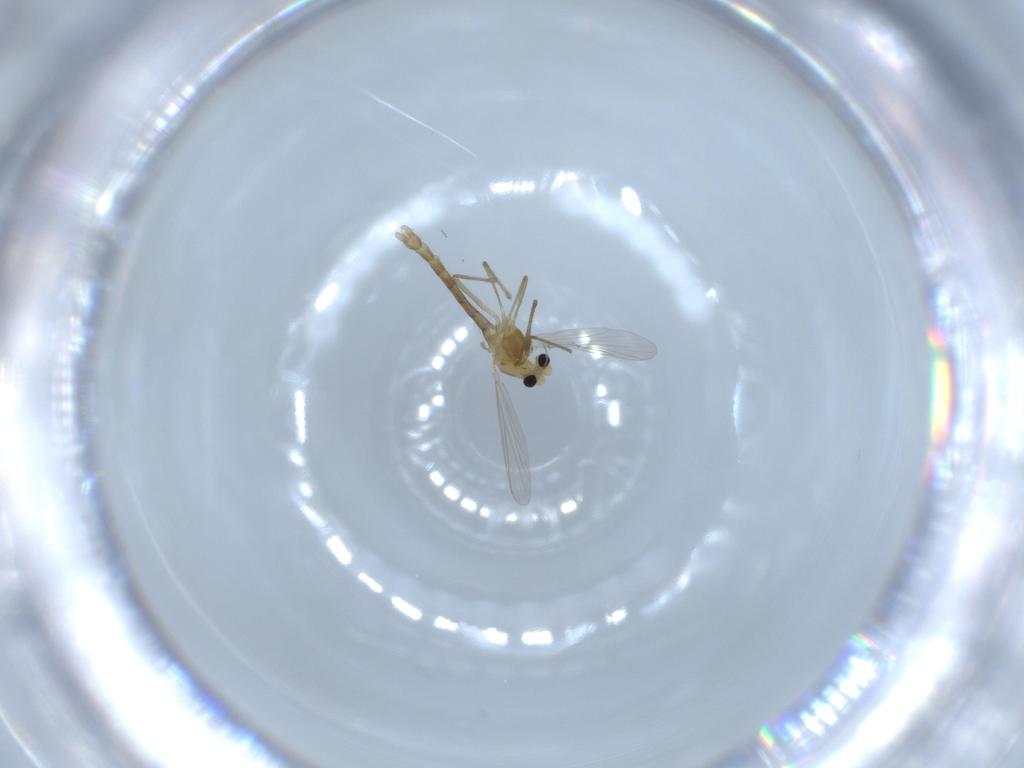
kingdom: Animalia
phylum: Arthropoda
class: Insecta
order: Diptera
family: Chironomidae
